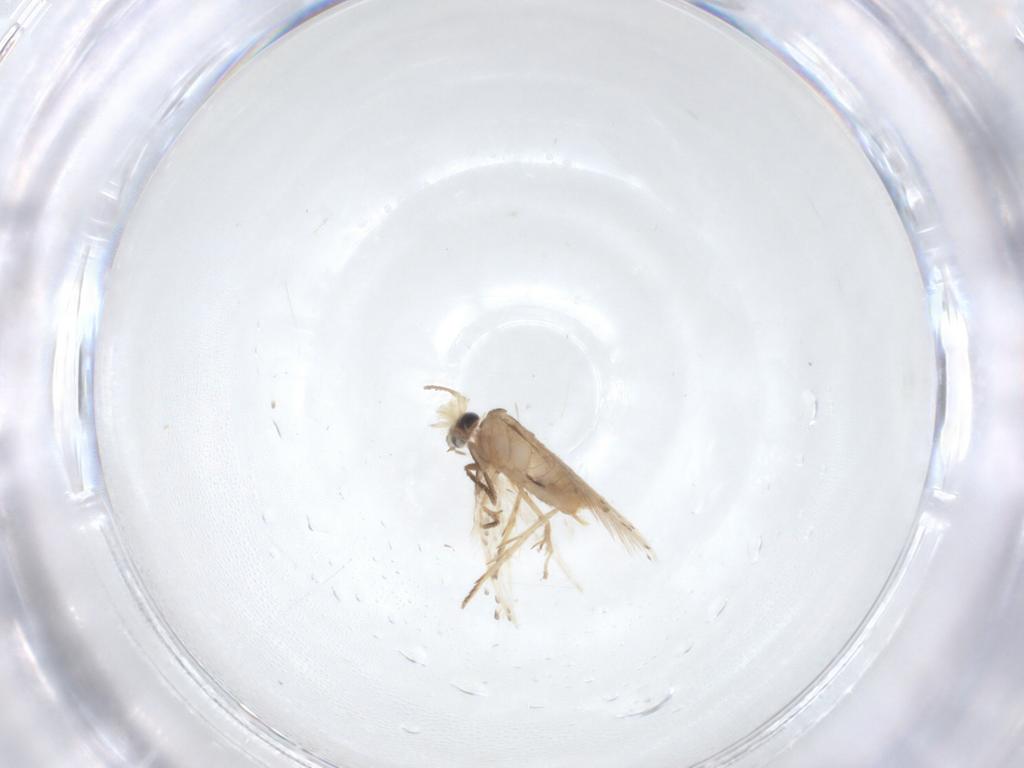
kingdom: Animalia
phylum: Arthropoda
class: Insecta
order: Lepidoptera
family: Nepticulidae
